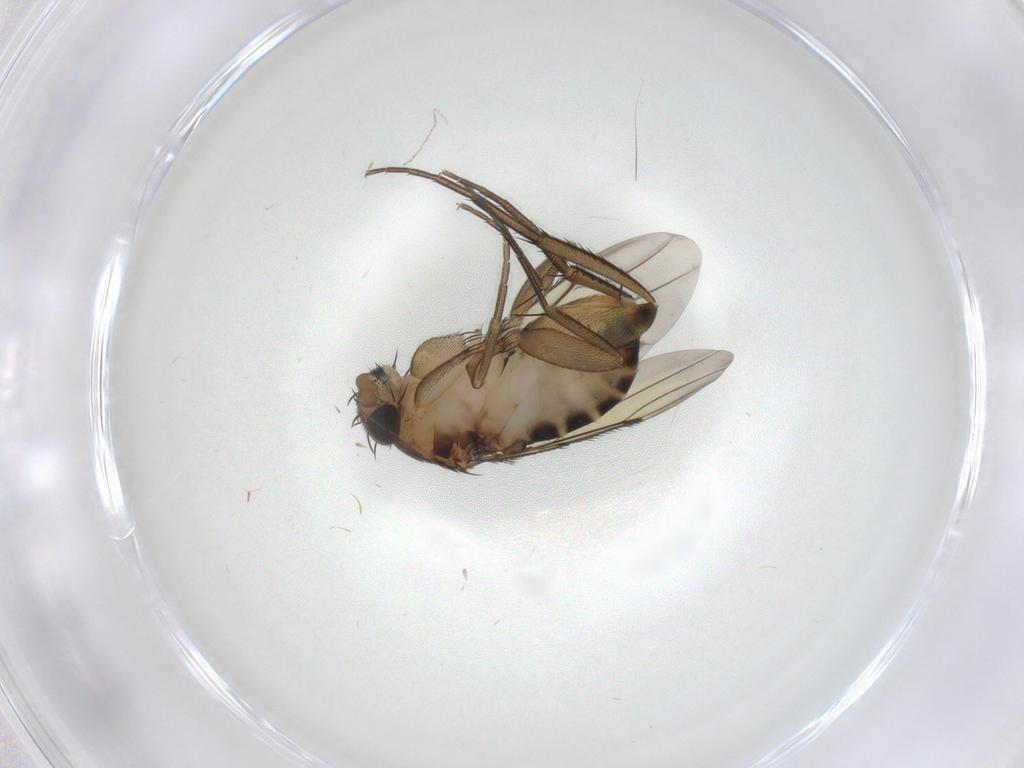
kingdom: Animalia
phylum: Arthropoda
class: Insecta
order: Diptera
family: Phoridae
